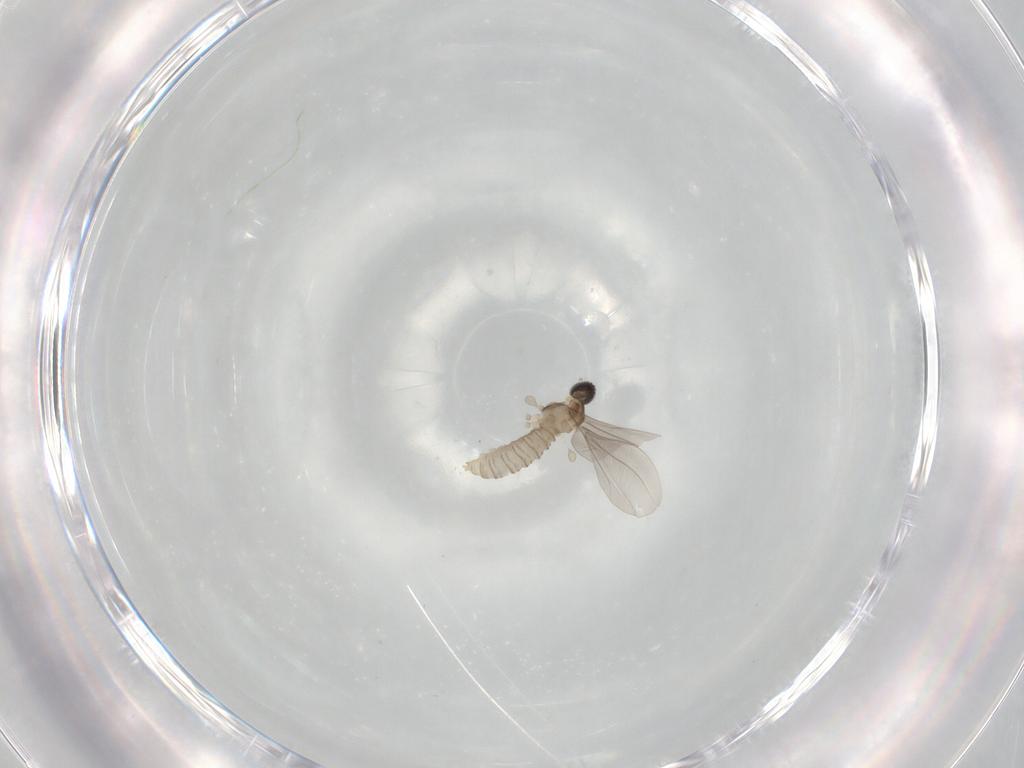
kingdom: Animalia
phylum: Arthropoda
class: Insecta
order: Diptera
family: Cecidomyiidae
